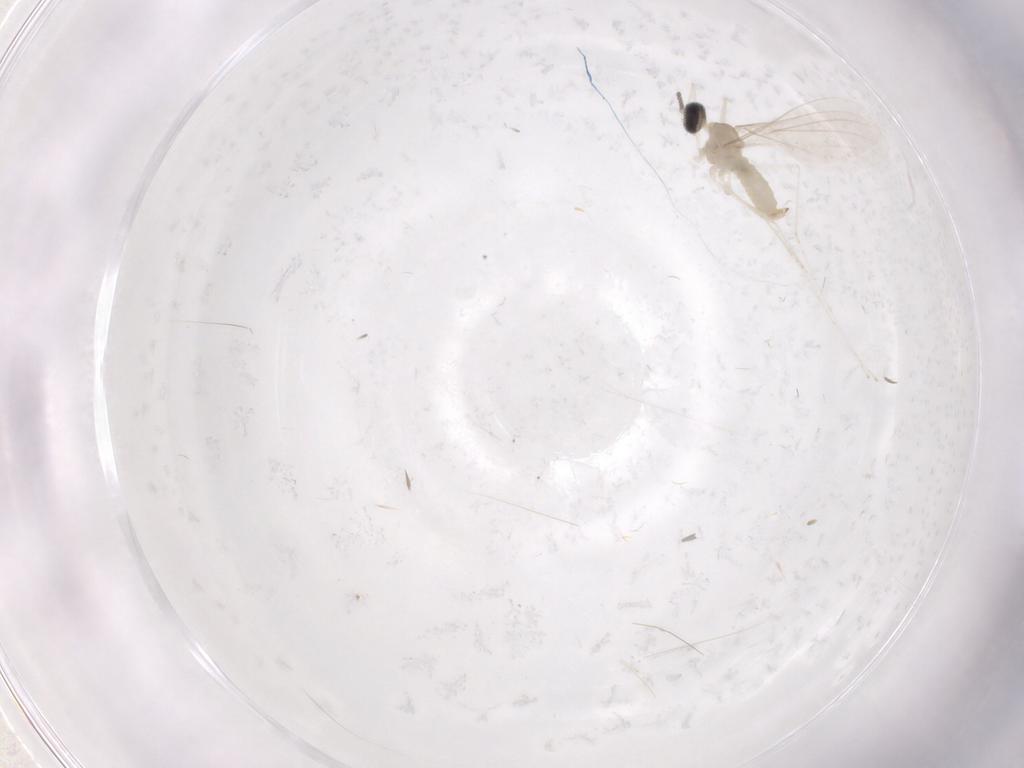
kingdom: Animalia
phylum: Arthropoda
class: Insecta
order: Diptera
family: Cecidomyiidae
